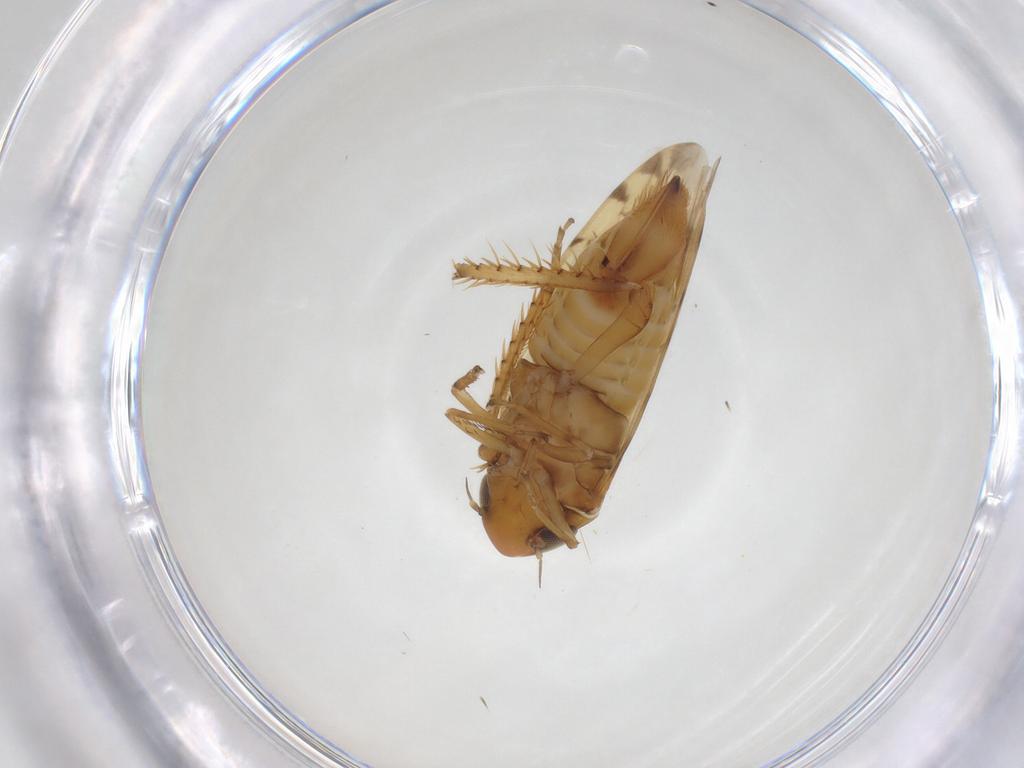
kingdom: Animalia
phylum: Arthropoda
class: Insecta
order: Hemiptera
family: Cicadellidae
